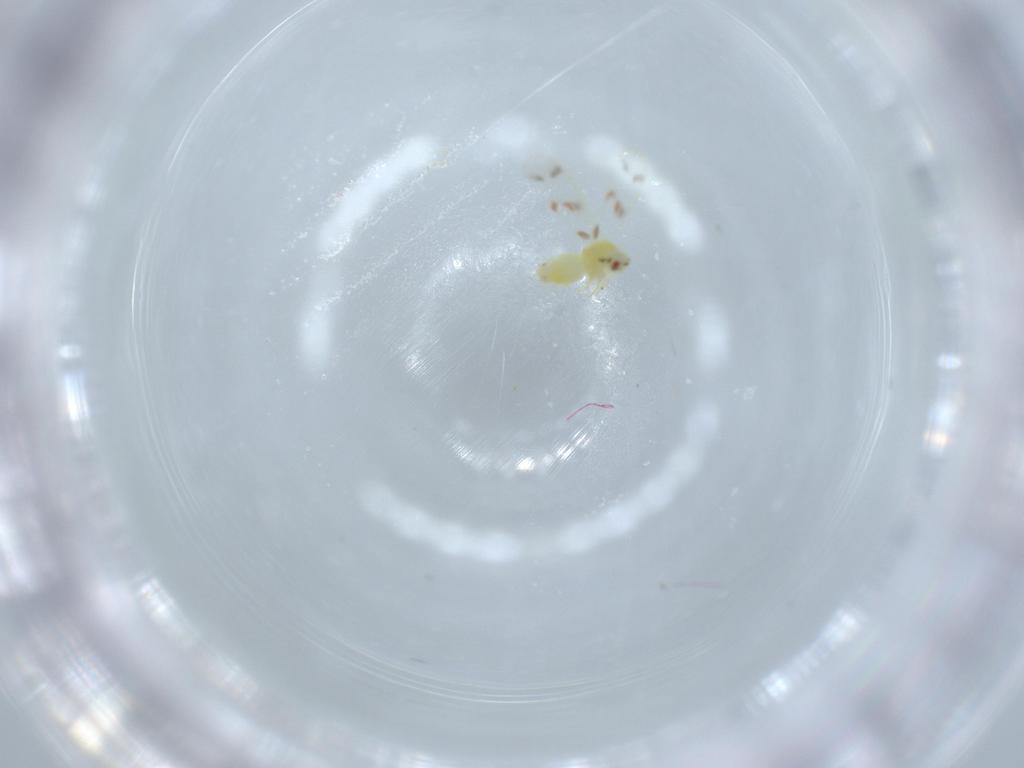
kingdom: Animalia
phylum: Arthropoda
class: Insecta
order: Hemiptera
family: Aleyrodidae
